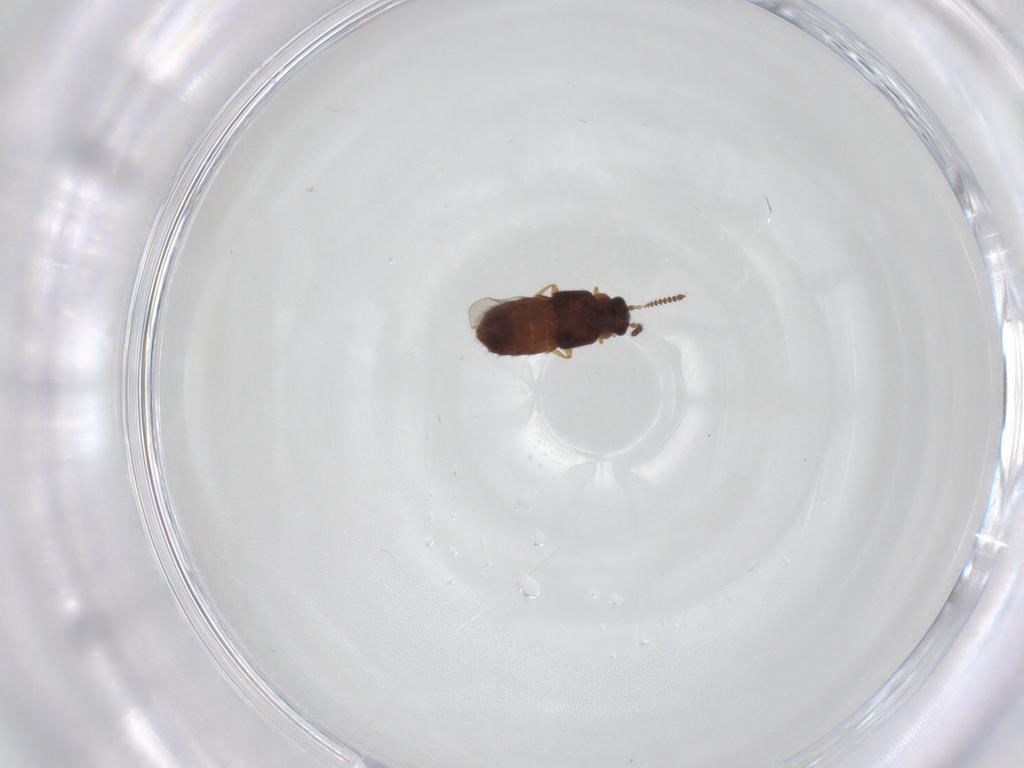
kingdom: Animalia
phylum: Arthropoda
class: Insecta
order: Coleoptera
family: Staphylinidae
